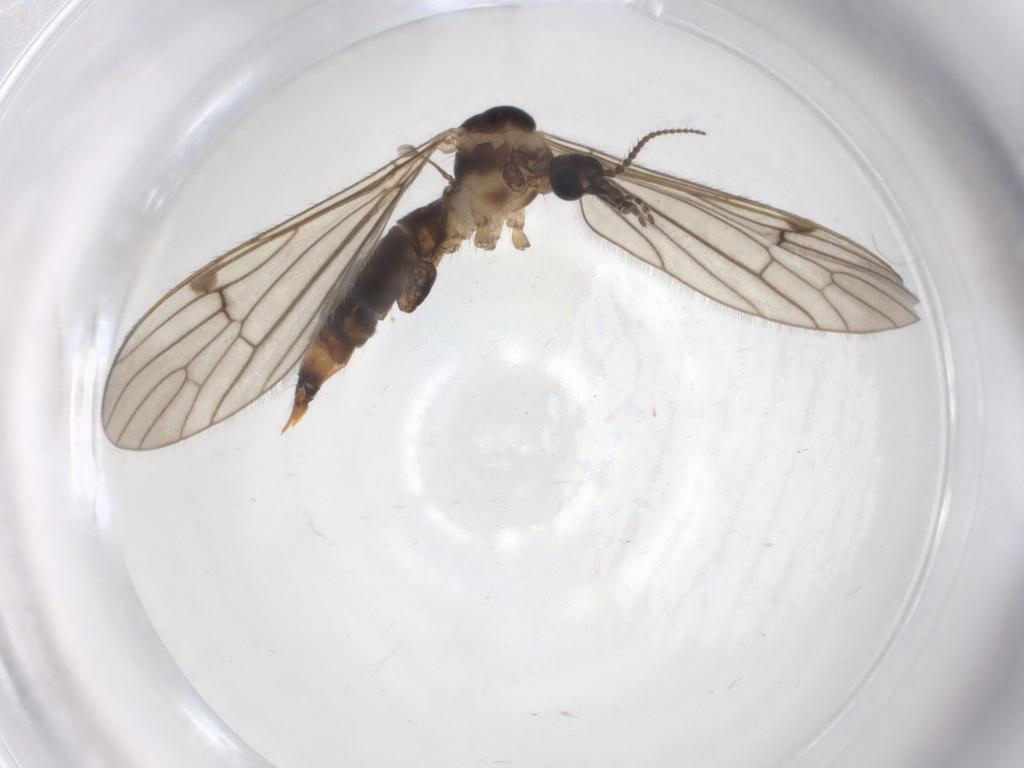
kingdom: Animalia
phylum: Arthropoda
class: Insecta
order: Diptera
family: Limoniidae
